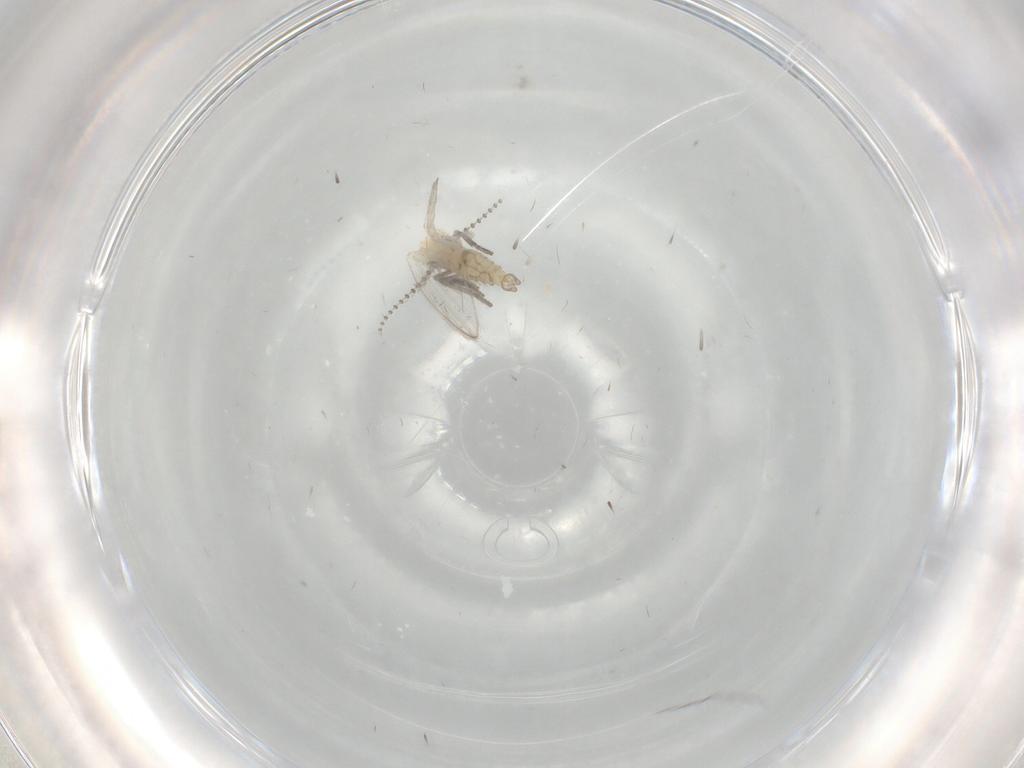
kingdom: Animalia
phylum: Arthropoda
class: Insecta
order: Diptera
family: Psychodidae
